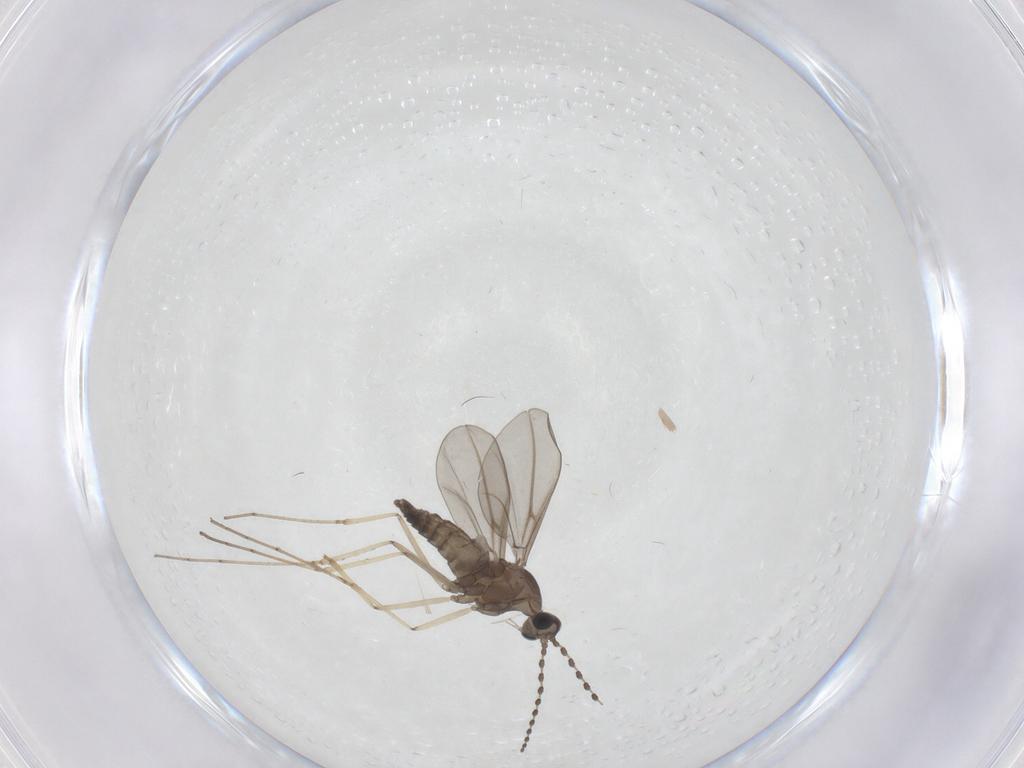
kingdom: Animalia
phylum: Arthropoda
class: Insecta
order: Diptera
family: Cecidomyiidae
